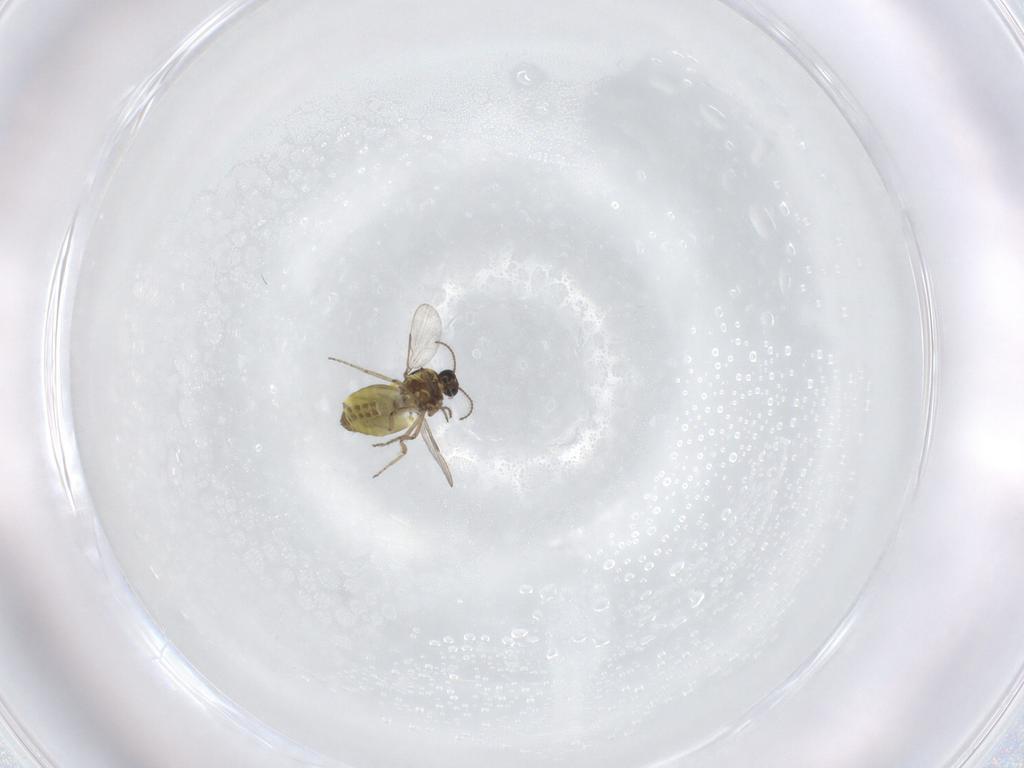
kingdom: Animalia
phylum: Arthropoda
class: Insecta
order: Diptera
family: Ceratopogonidae
